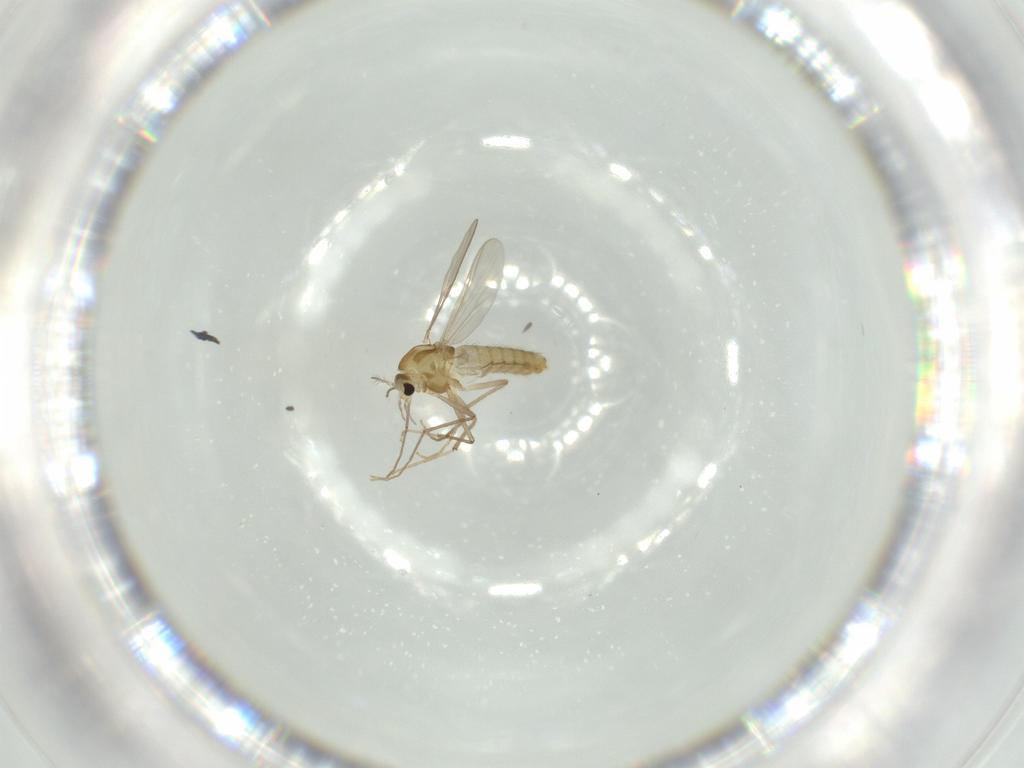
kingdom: Animalia
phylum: Arthropoda
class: Insecta
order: Diptera
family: Chironomidae
